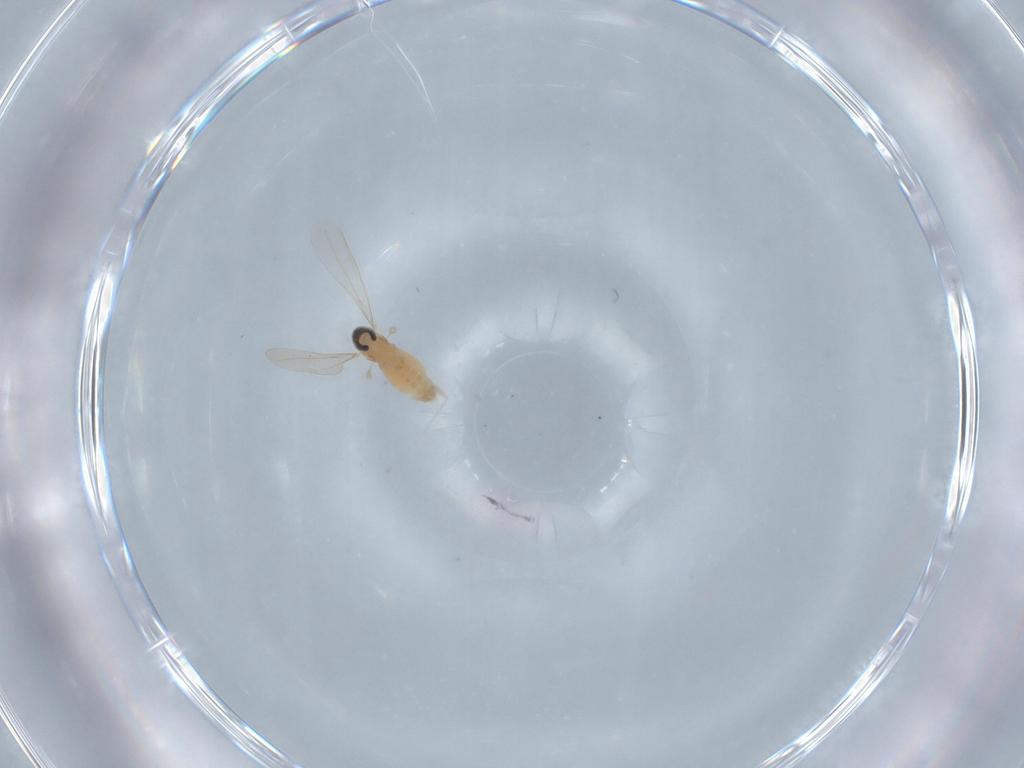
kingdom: Animalia
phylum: Arthropoda
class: Insecta
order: Diptera
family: Cecidomyiidae
